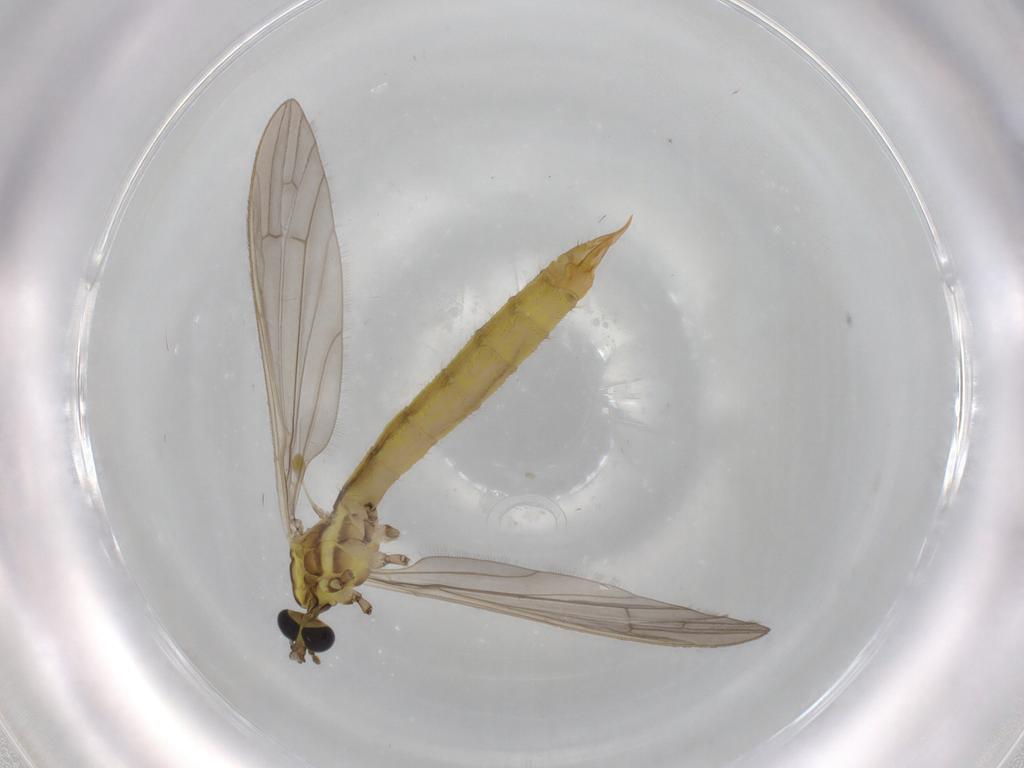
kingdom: Animalia
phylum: Arthropoda
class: Insecta
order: Diptera
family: Limoniidae
